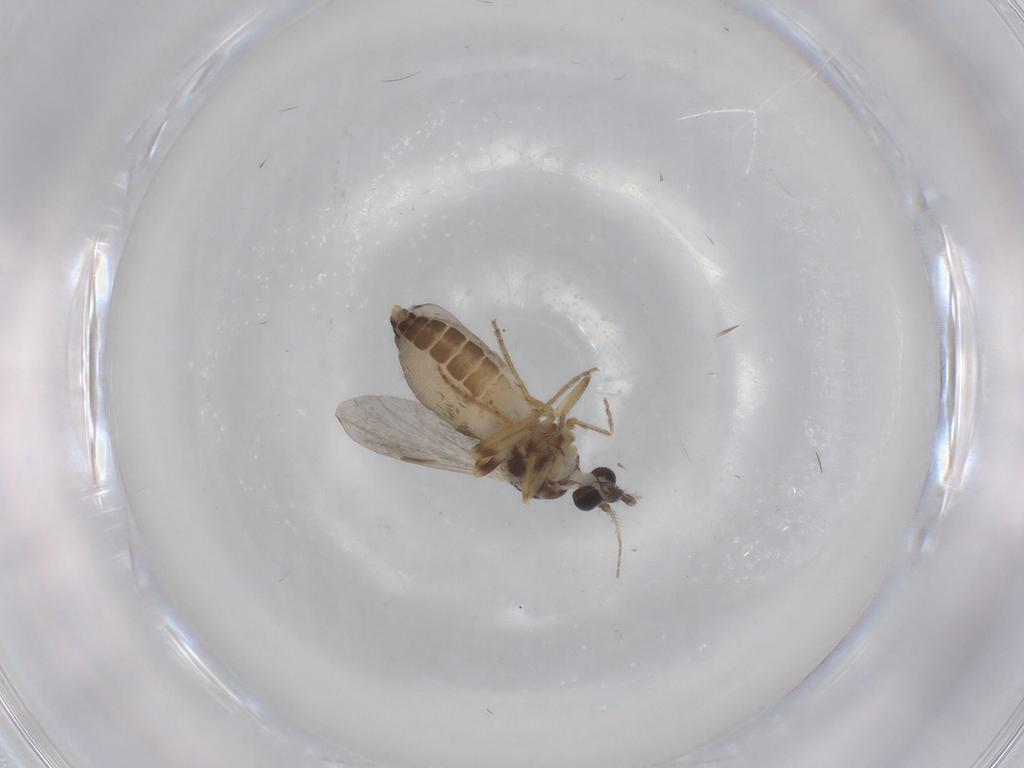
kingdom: Animalia
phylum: Arthropoda
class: Insecta
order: Diptera
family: Ceratopogonidae
